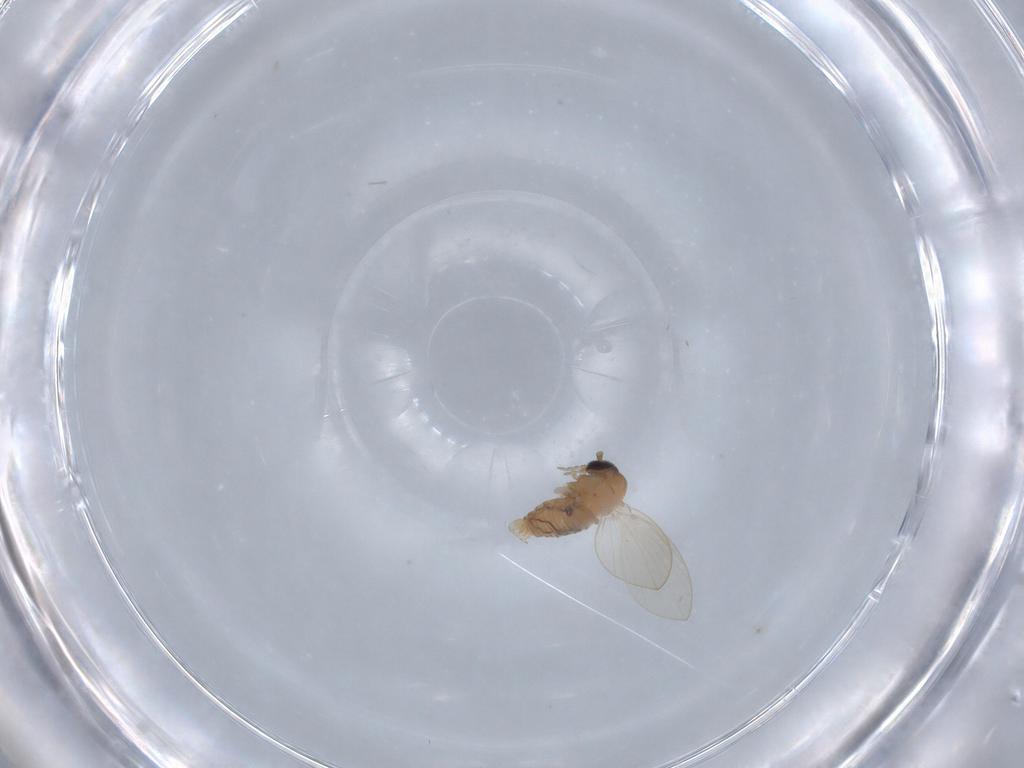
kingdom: Animalia
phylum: Arthropoda
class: Insecta
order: Diptera
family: Psychodidae
